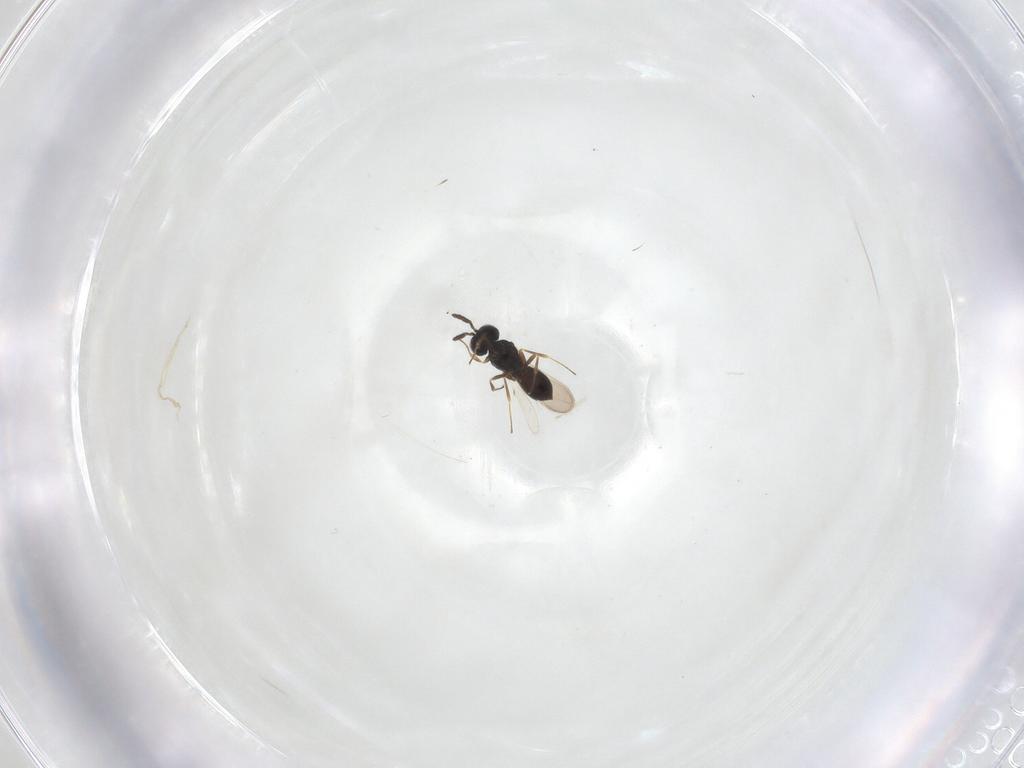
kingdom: Animalia
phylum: Arthropoda
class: Insecta
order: Hymenoptera
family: Scelionidae
